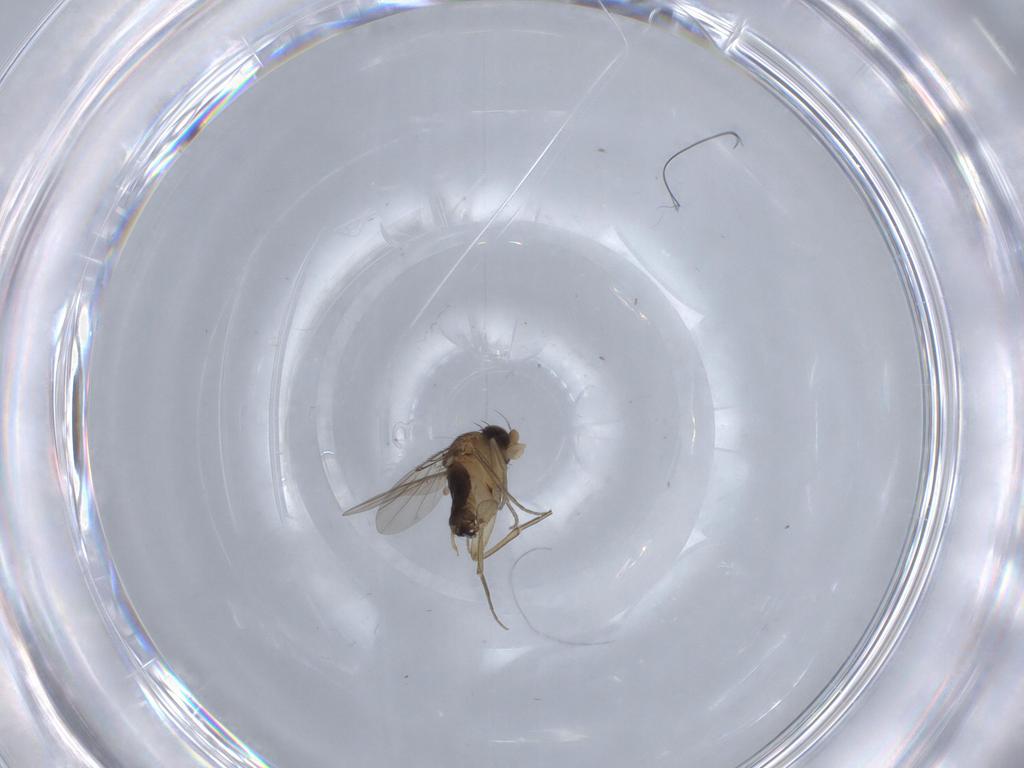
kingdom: Animalia
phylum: Arthropoda
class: Insecta
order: Diptera
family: Phoridae
